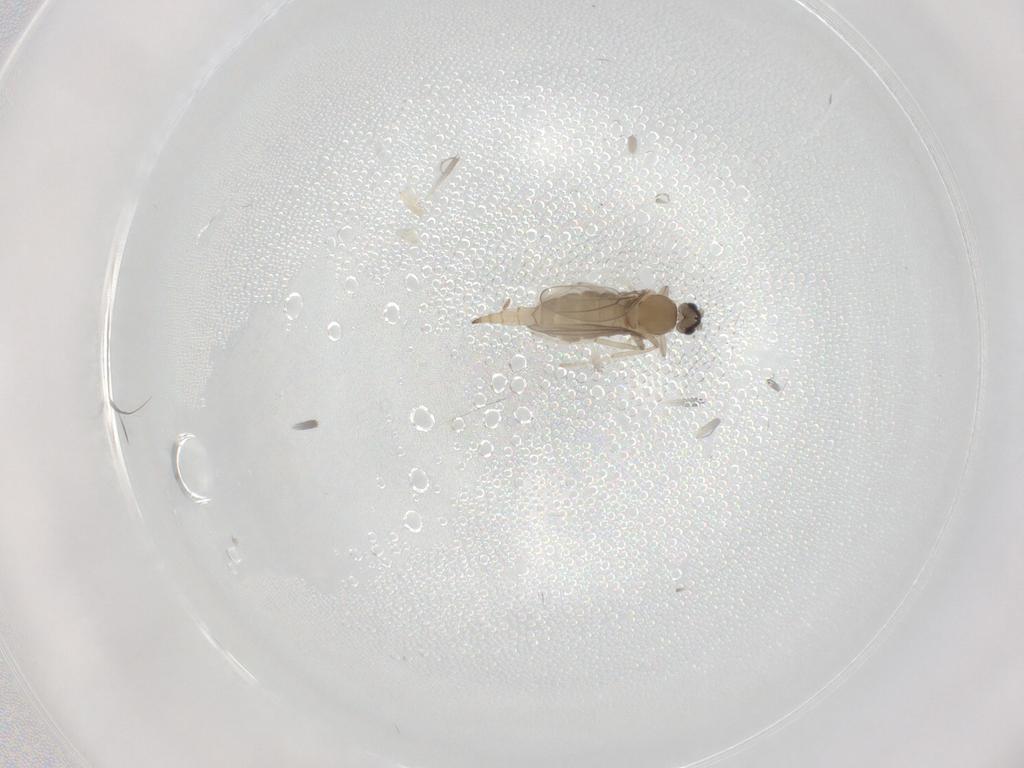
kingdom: Animalia
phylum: Arthropoda
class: Insecta
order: Diptera
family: Cecidomyiidae
